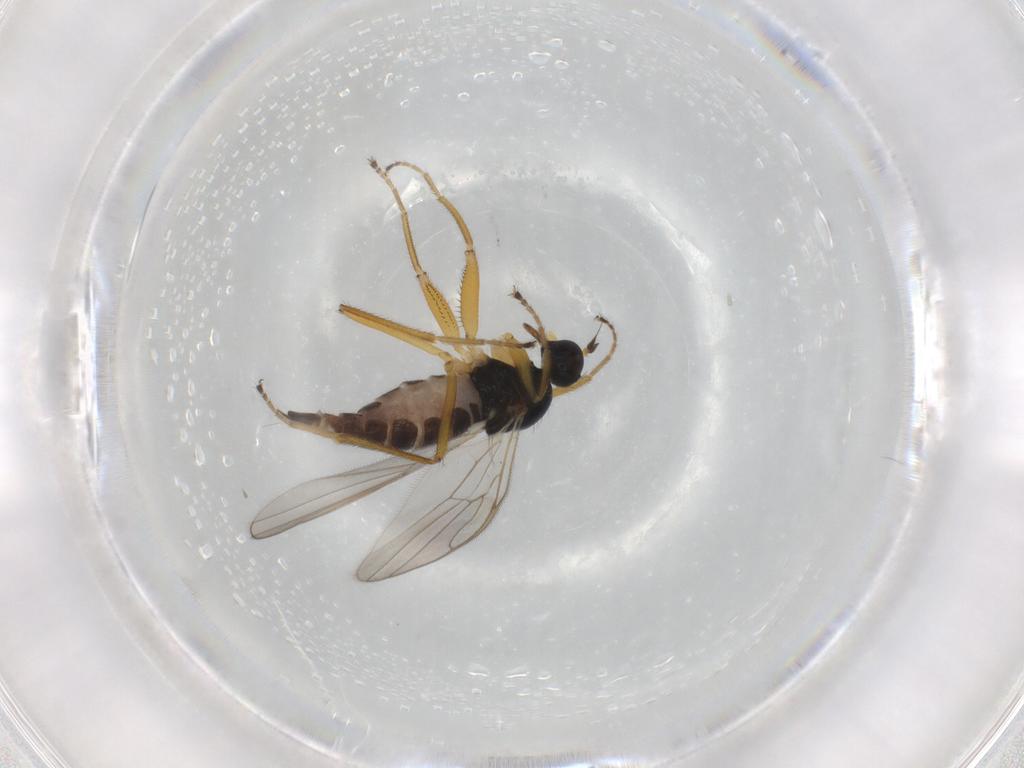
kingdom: Animalia
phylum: Arthropoda
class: Insecta
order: Diptera
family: Hybotidae
